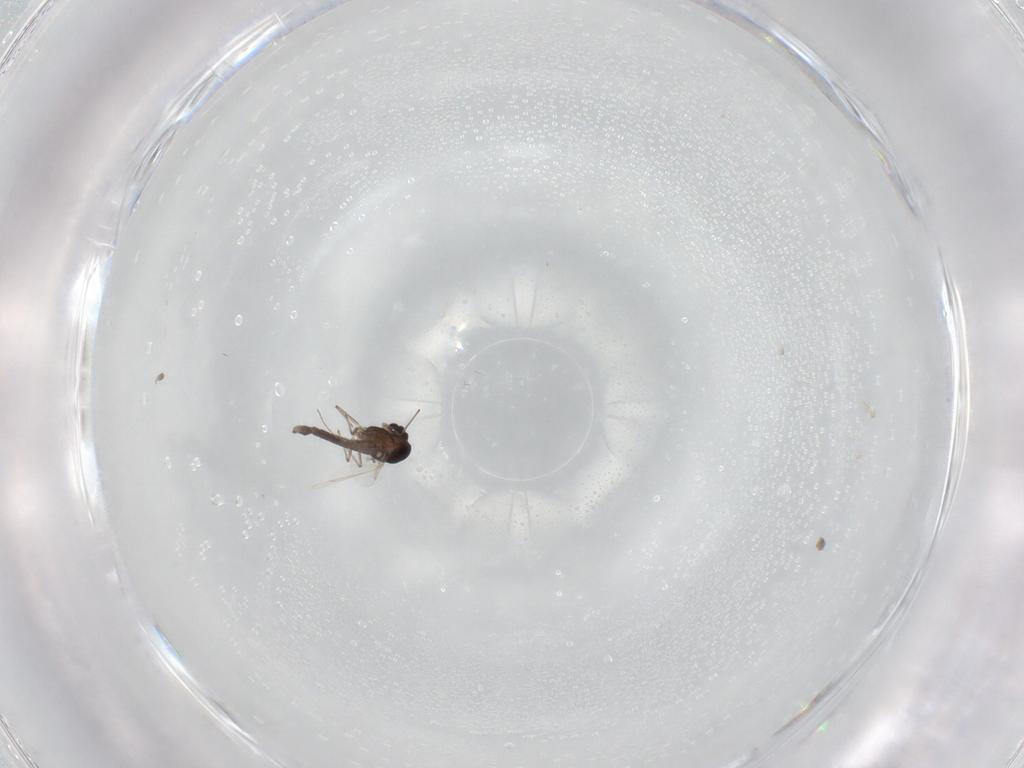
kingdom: Animalia
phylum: Arthropoda
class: Insecta
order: Diptera
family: Chironomidae
